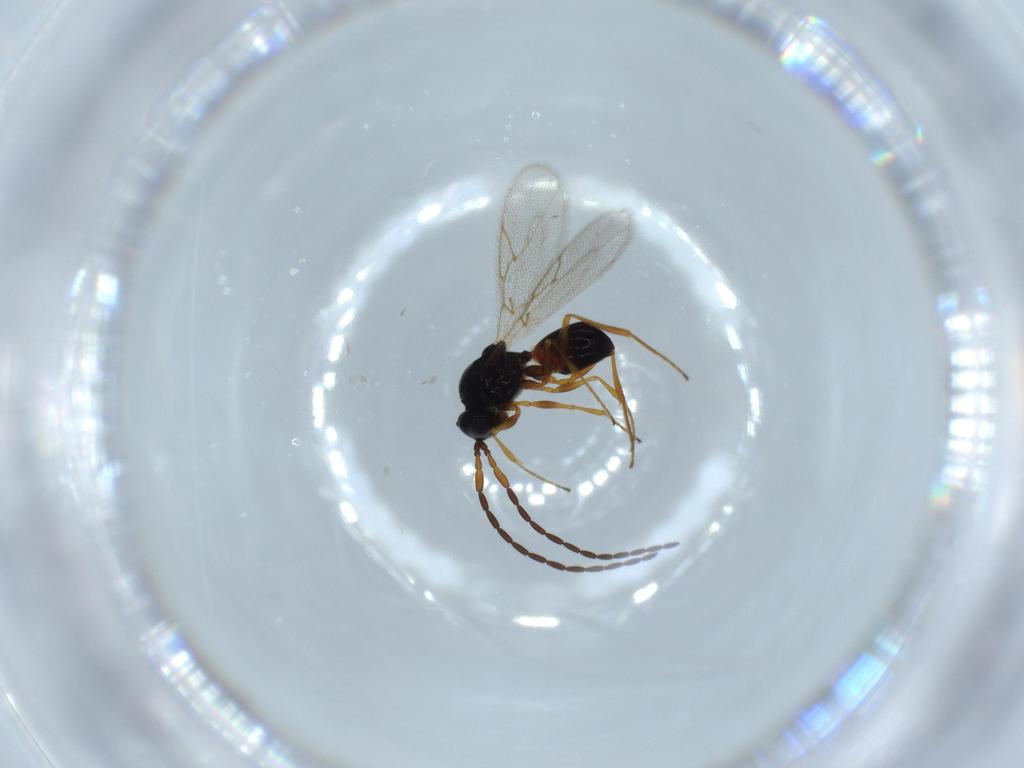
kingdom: Animalia
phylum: Arthropoda
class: Insecta
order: Hymenoptera
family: Figitidae
